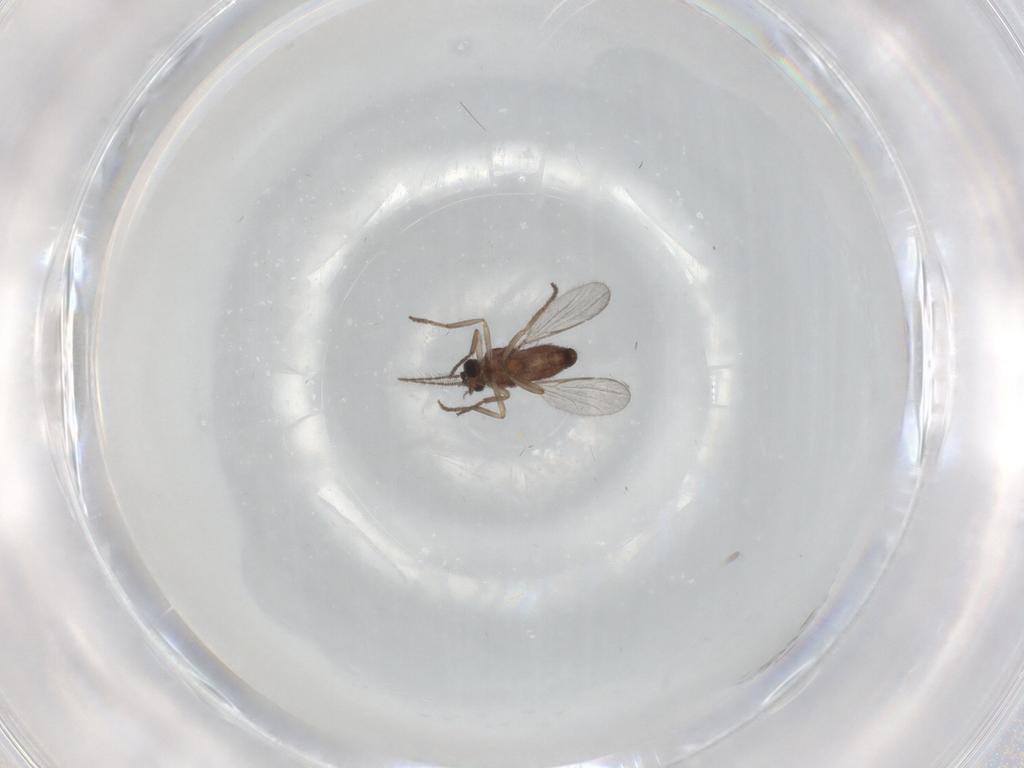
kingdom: Animalia
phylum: Arthropoda
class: Insecta
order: Diptera
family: Ceratopogonidae
